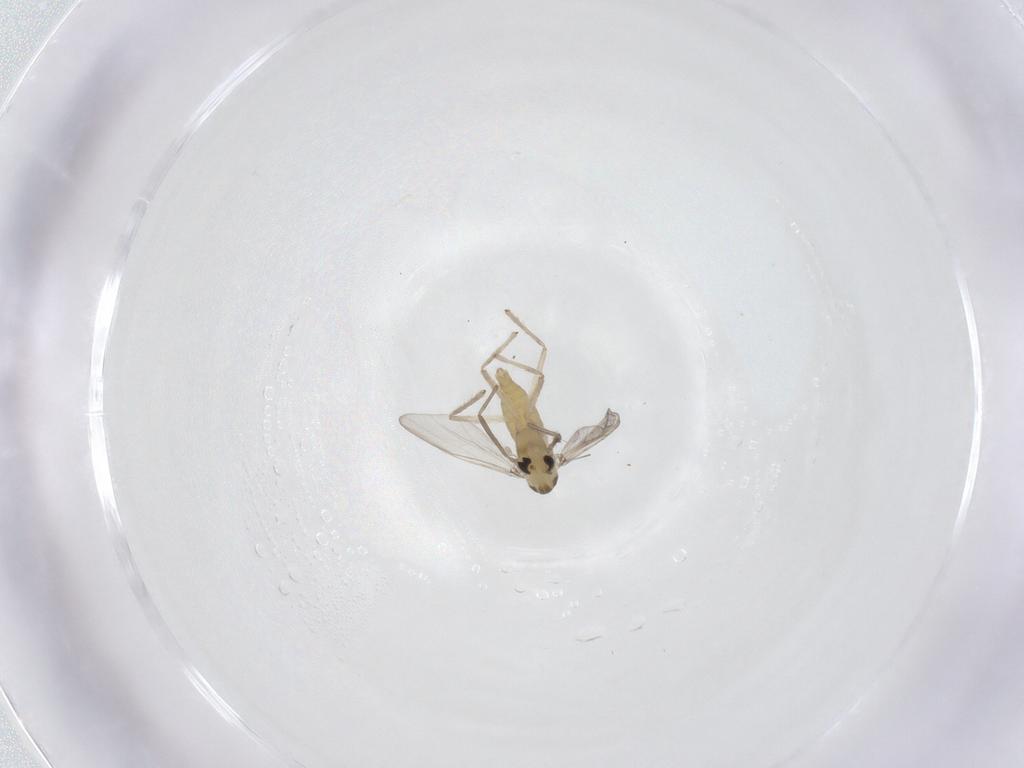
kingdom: Animalia
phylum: Arthropoda
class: Insecta
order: Diptera
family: Chironomidae
